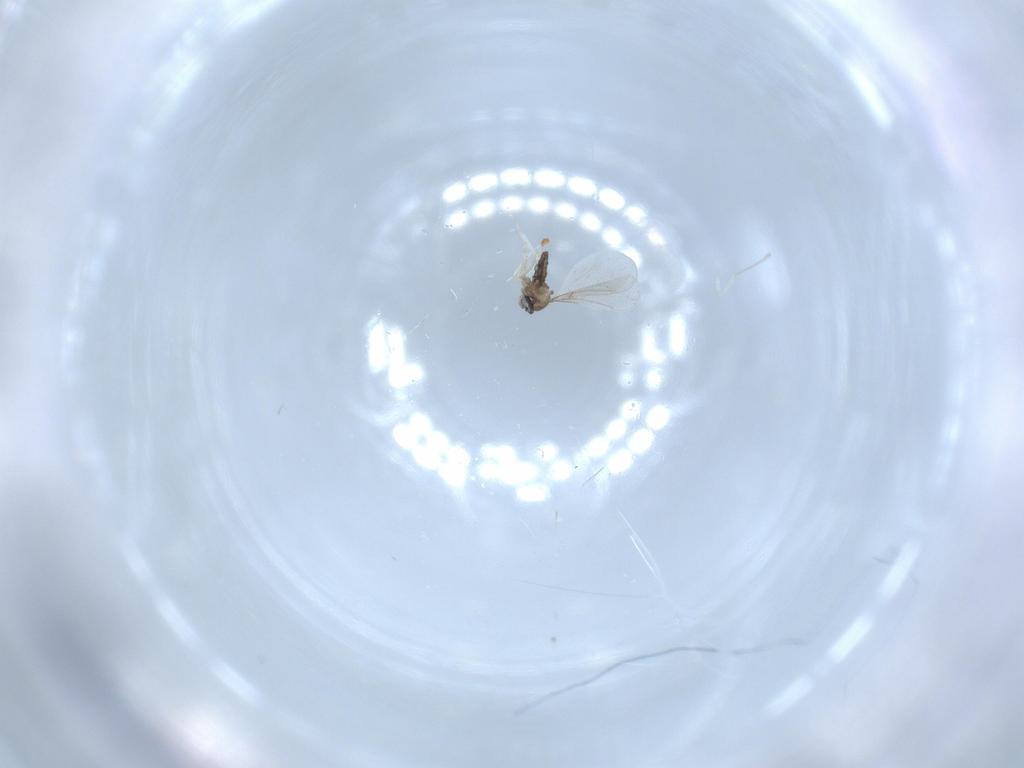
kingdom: Animalia
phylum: Arthropoda
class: Insecta
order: Diptera
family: Cecidomyiidae
